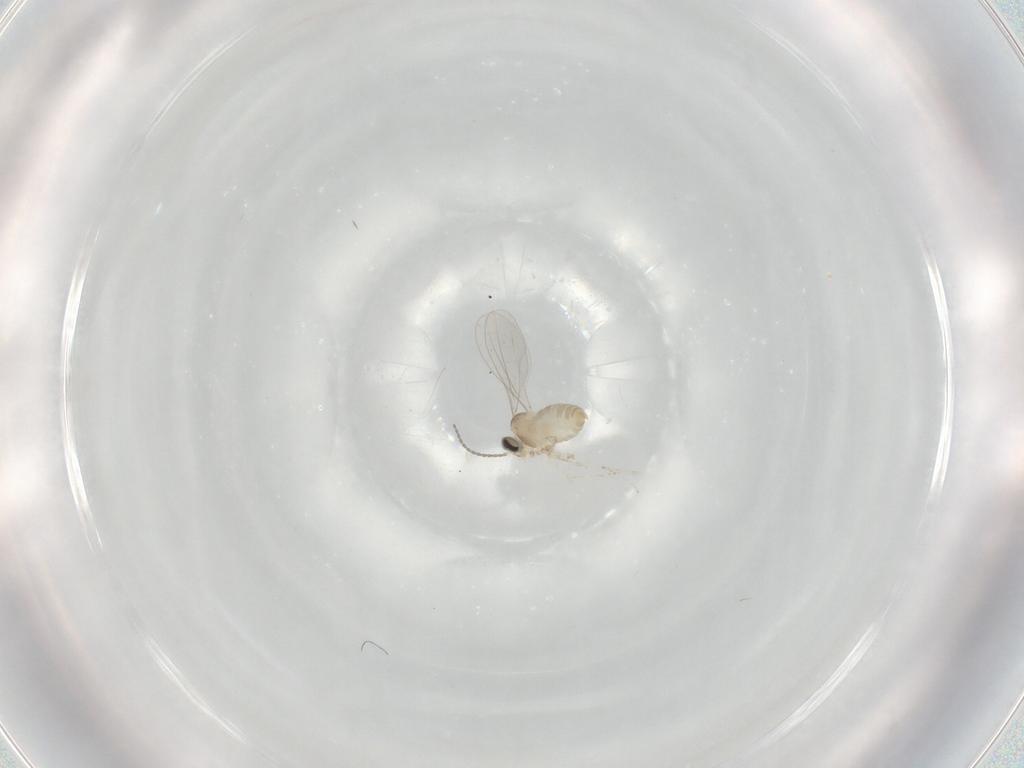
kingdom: Animalia
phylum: Arthropoda
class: Insecta
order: Diptera
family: Cecidomyiidae
